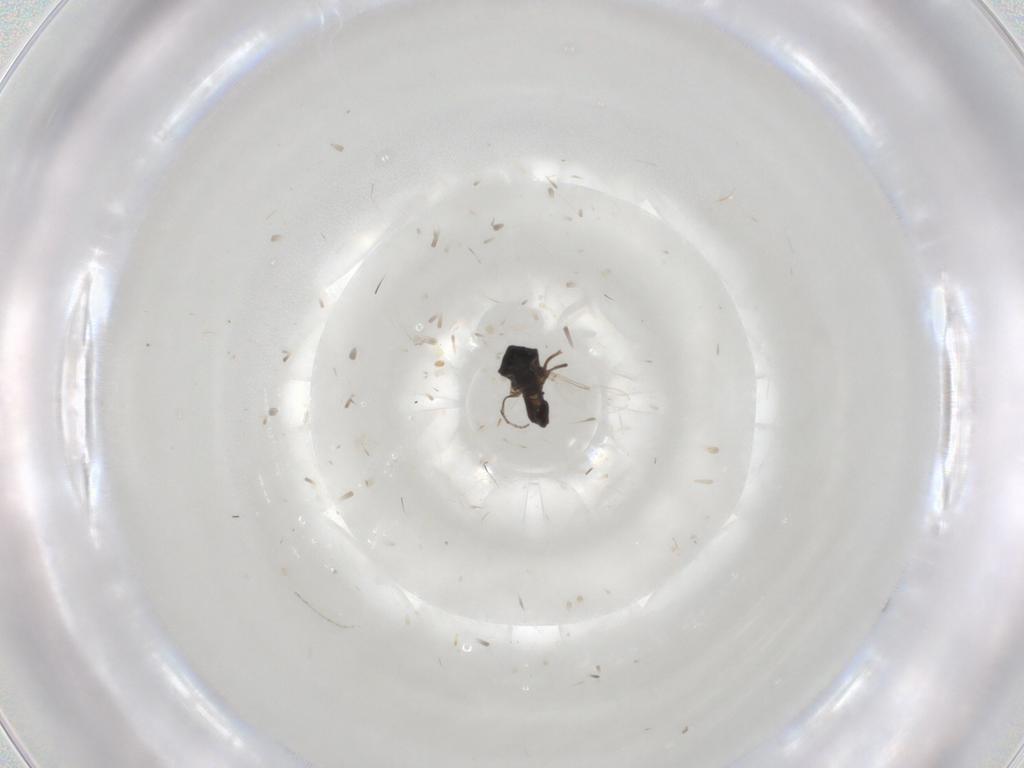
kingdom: Animalia
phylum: Arthropoda
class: Insecta
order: Diptera
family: Ceratopogonidae
